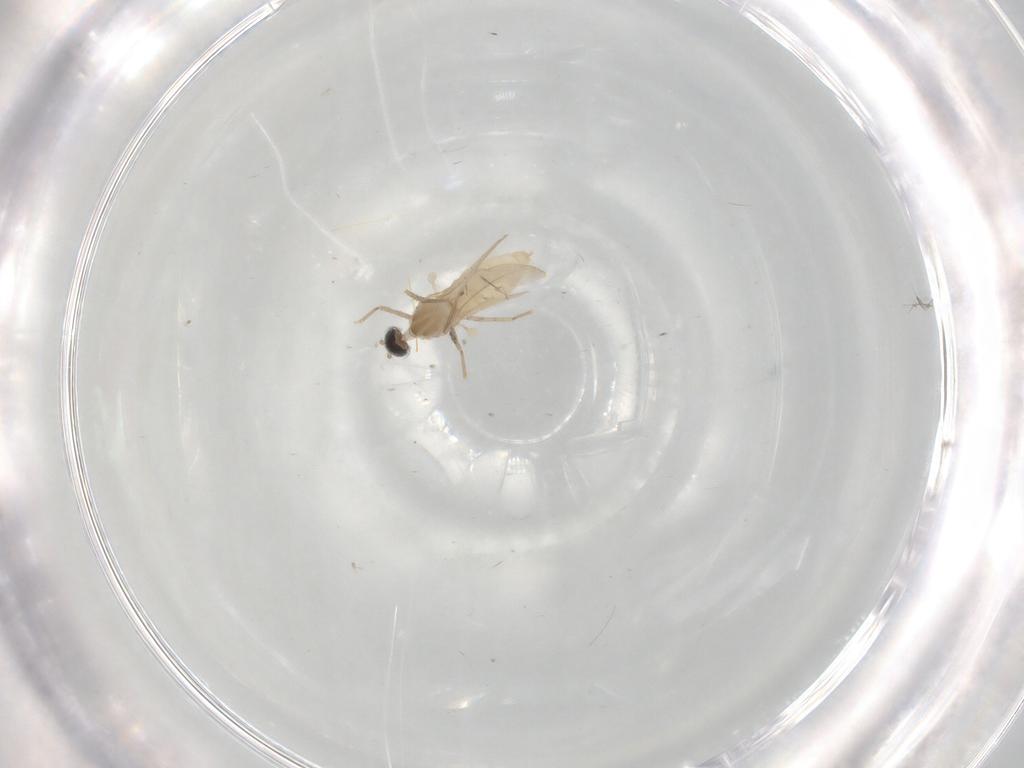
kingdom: Animalia
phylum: Arthropoda
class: Insecta
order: Diptera
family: Cecidomyiidae
